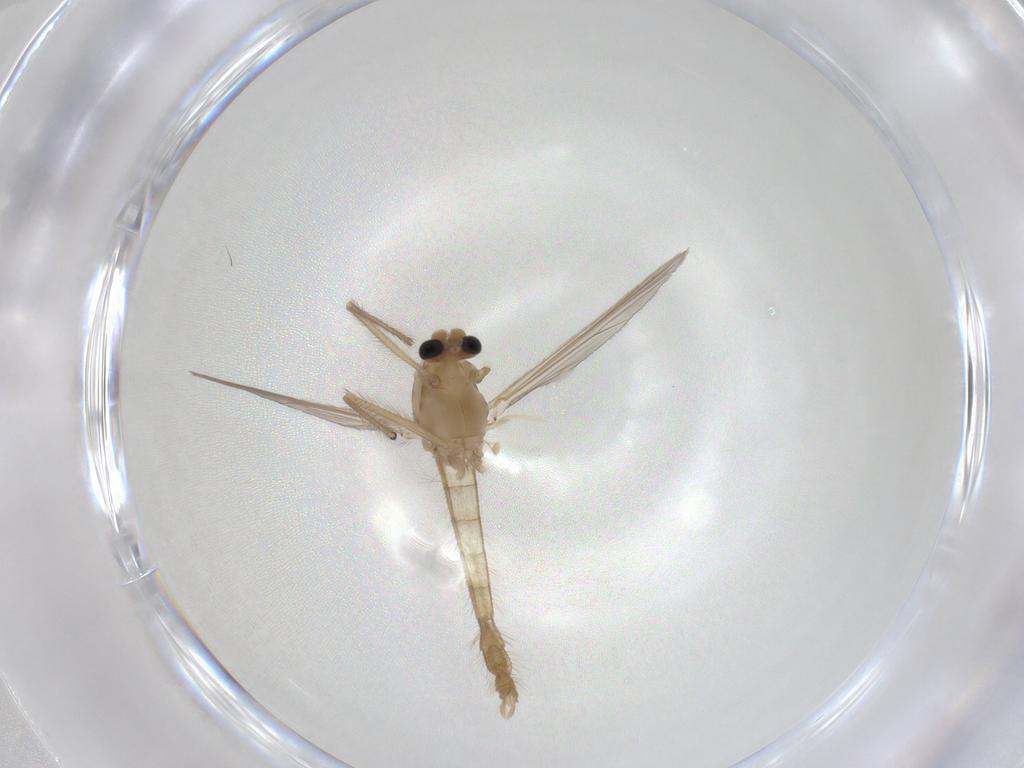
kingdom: Animalia
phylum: Arthropoda
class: Insecta
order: Diptera
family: Chironomidae
